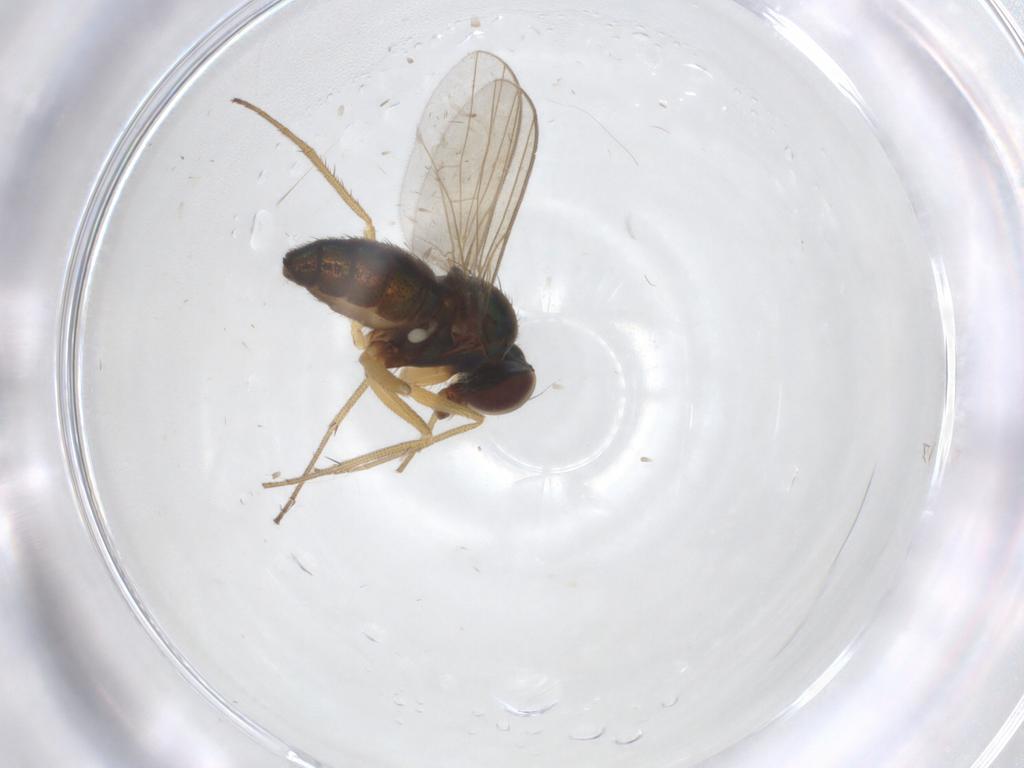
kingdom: Animalia
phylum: Arthropoda
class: Insecta
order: Diptera
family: Dolichopodidae
